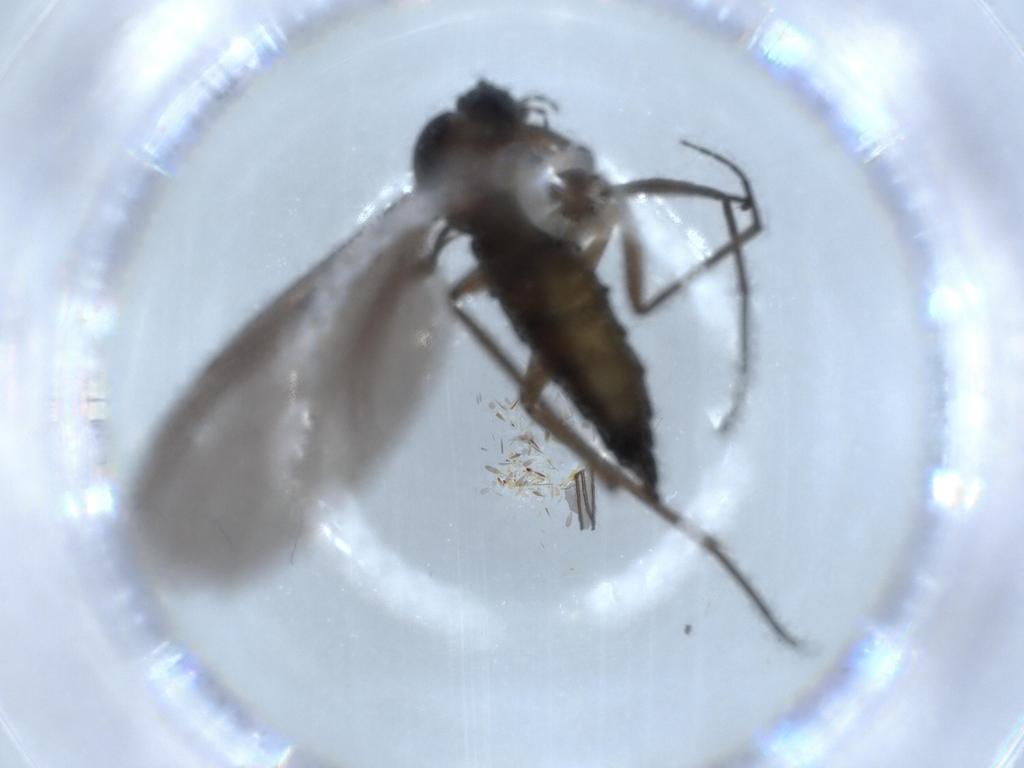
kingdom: Animalia
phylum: Arthropoda
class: Insecta
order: Diptera
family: Sciaridae
